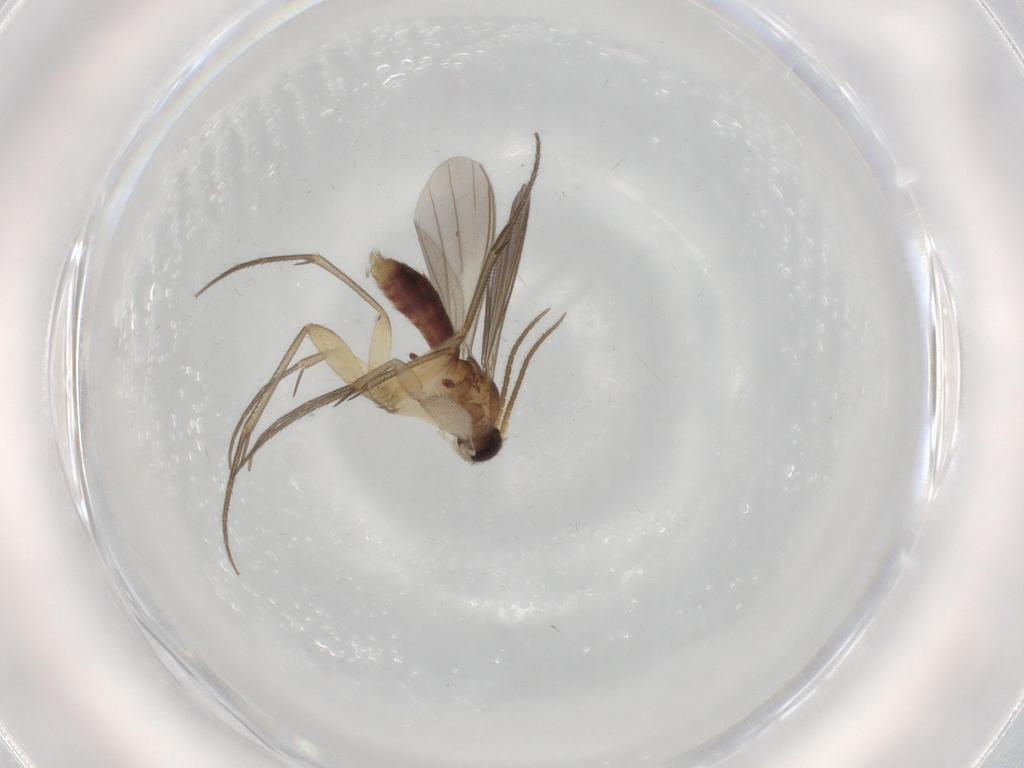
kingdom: Animalia
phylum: Arthropoda
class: Insecta
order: Diptera
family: Mycetophilidae
